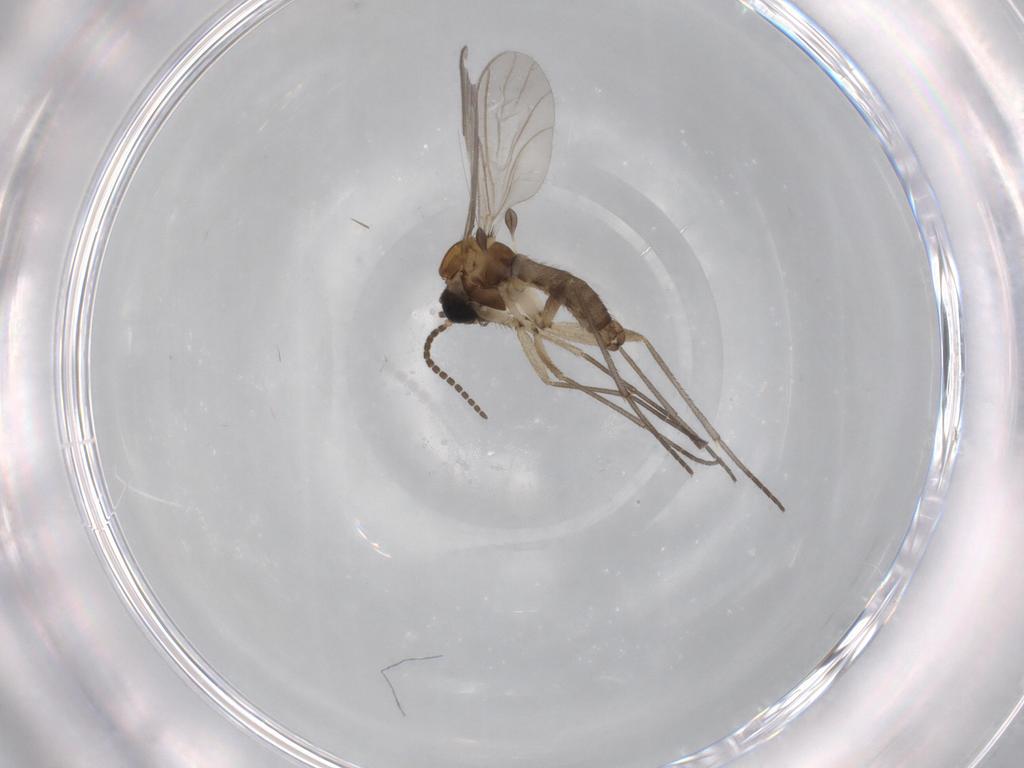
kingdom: Animalia
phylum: Arthropoda
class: Insecta
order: Diptera
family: Sciaridae
